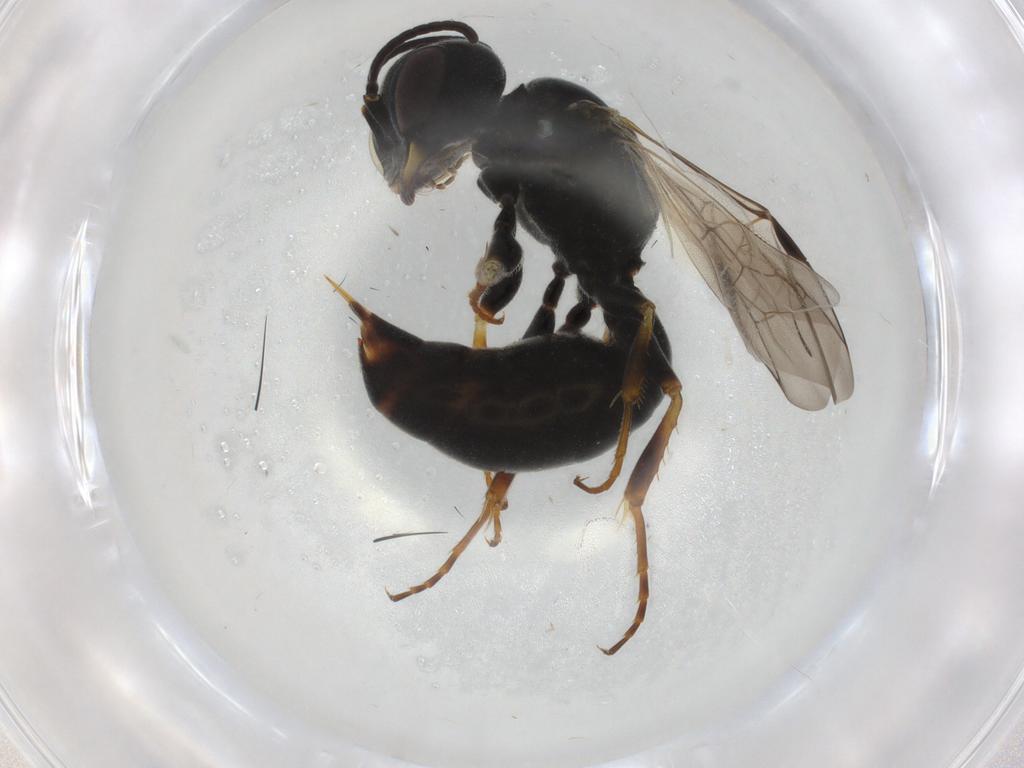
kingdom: Animalia
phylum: Arthropoda
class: Insecta
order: Hymenoptera
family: Crabronidae
